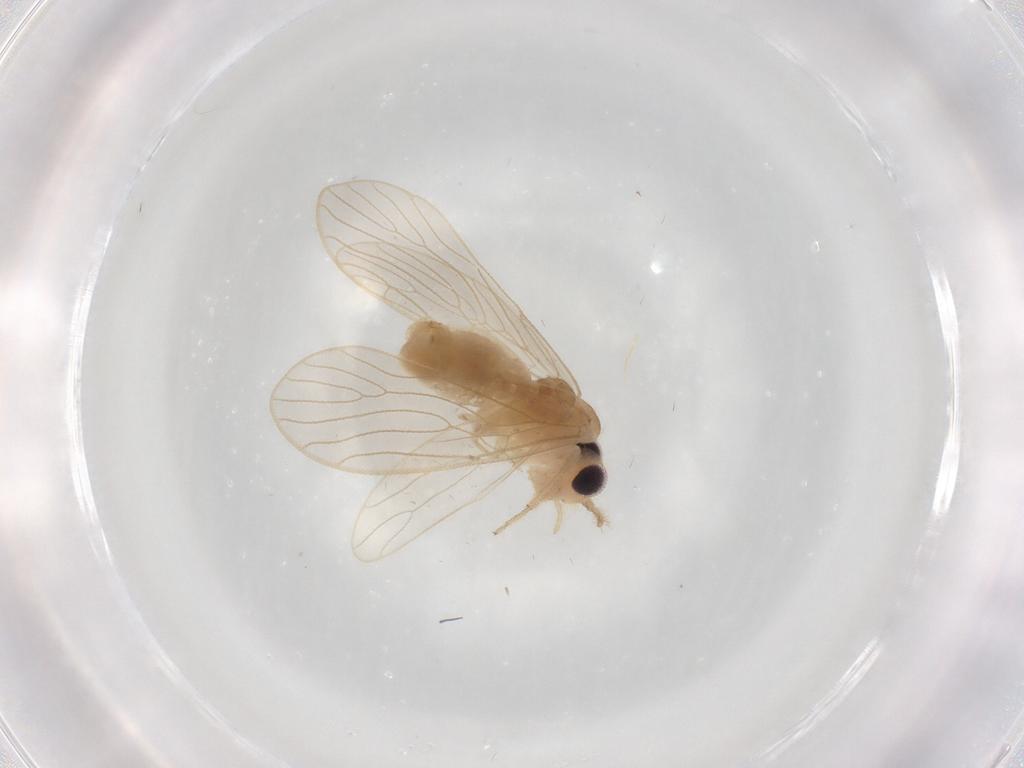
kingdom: Animalia
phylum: Arthropoda
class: Insecta
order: Psocodea
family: Cladiopsocidae
